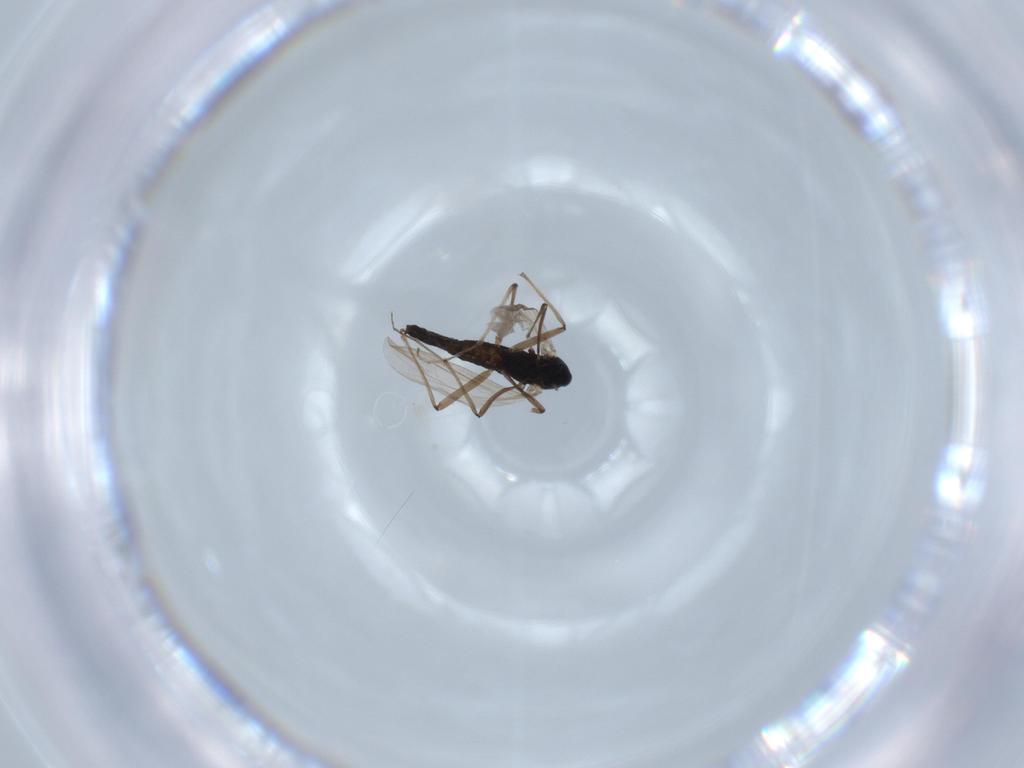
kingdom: Animalia
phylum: Arthropoda
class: Insecta
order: Diptera
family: Chironomidae
